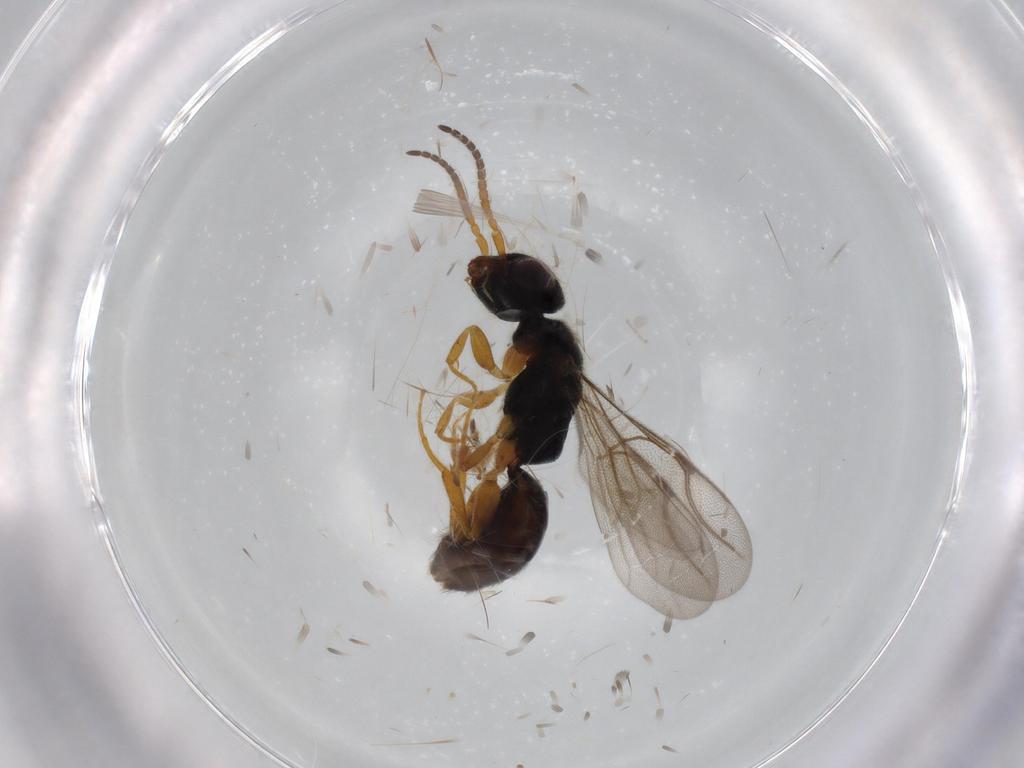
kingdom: Animalia
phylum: Arthropoda
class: Insecta
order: Hymenoptera
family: Bethylidae
